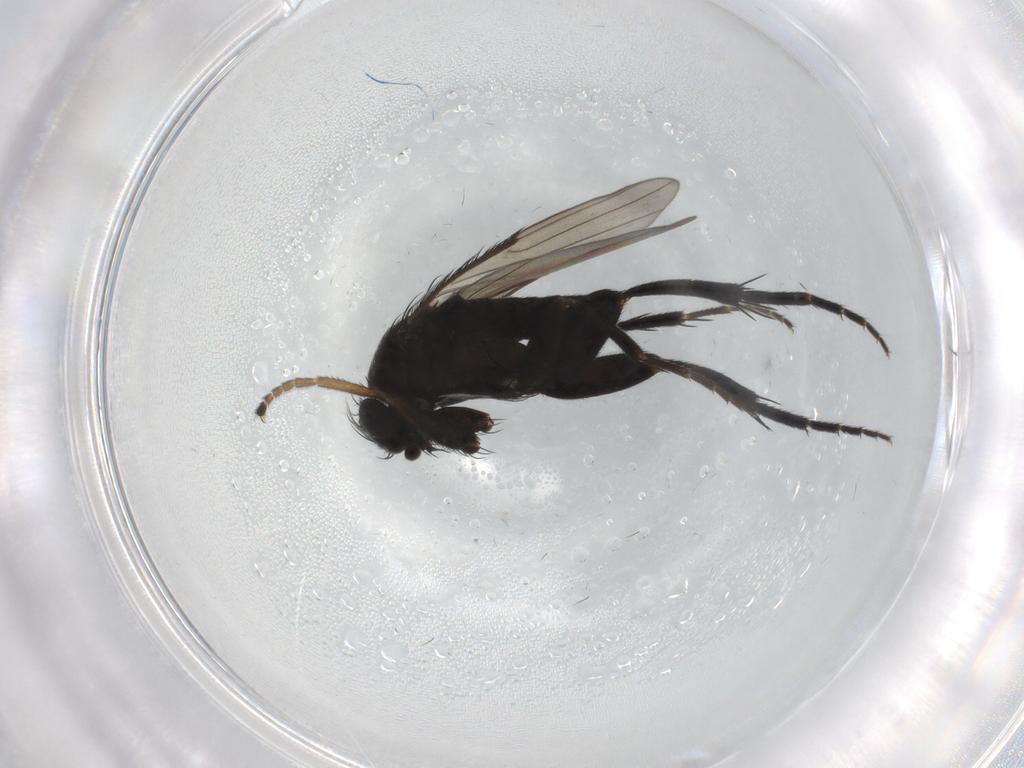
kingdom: Animalia
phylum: Arthropoda
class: Insecta
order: Diptera
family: Phoridae
